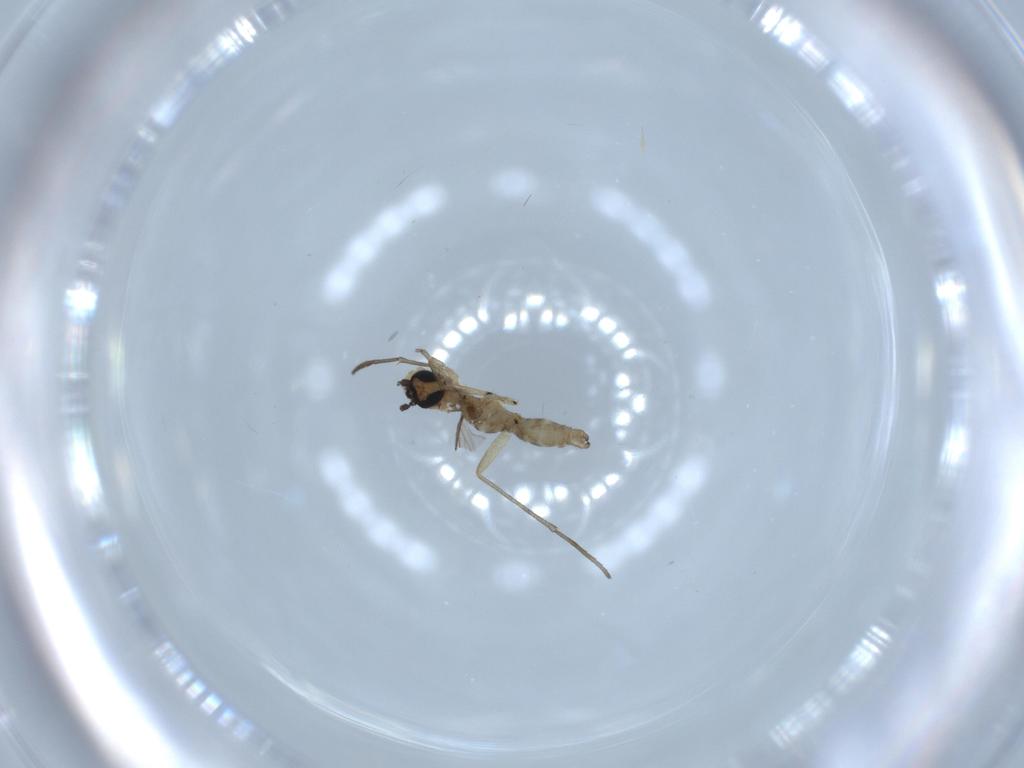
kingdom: Animalia
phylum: Arthropoda
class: Insecta
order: Diptera
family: Sciaridae
